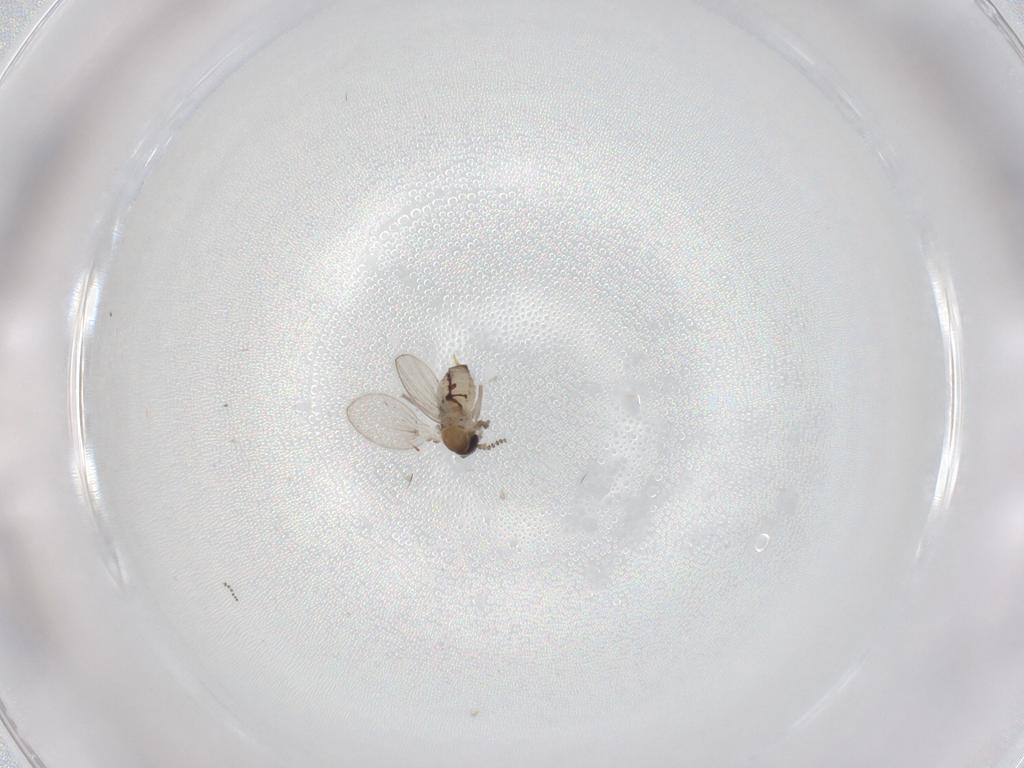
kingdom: Animalia
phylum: Arthropoda
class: Insecta
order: Diptera
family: Psychodidae
